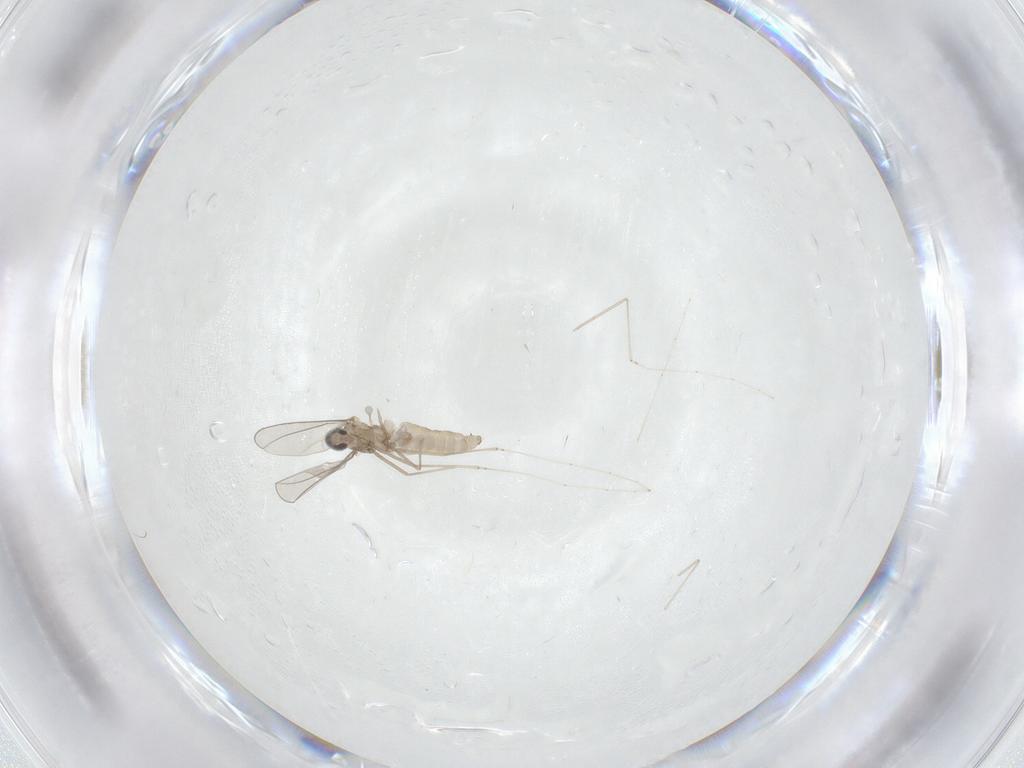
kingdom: Animalia
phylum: Arthropoda
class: Insecta
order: Diptera
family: Cecidomyiidae
